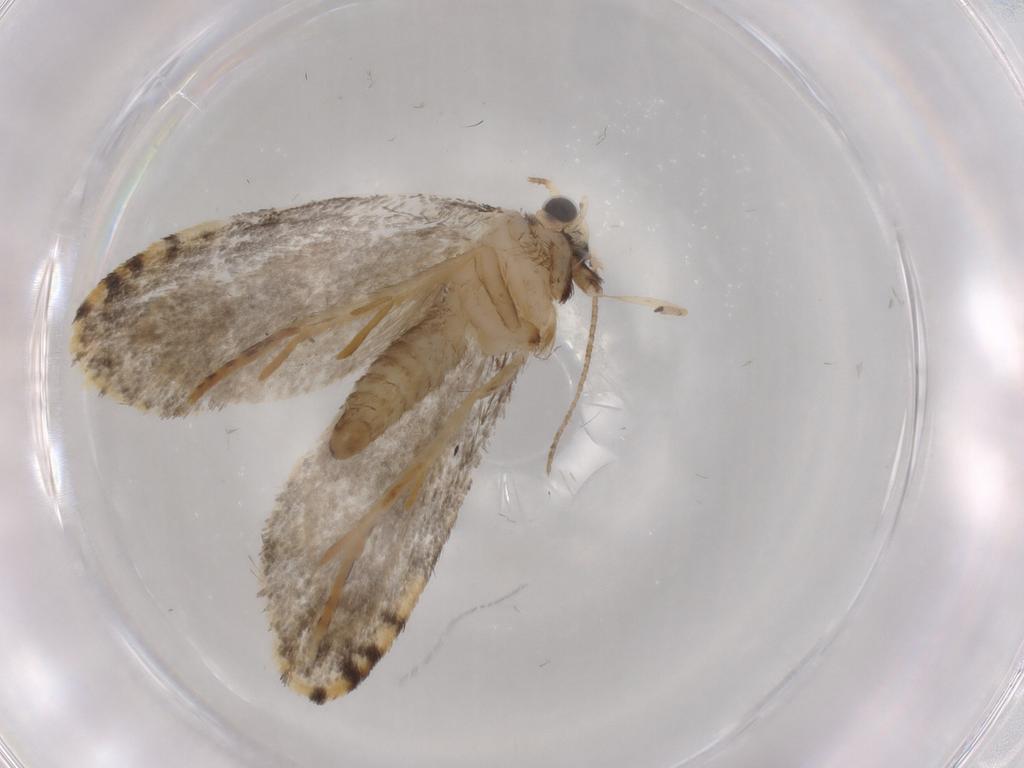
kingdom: Animalia
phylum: Arthropoda
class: Insecta
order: Lepidoptera
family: Psychidae
